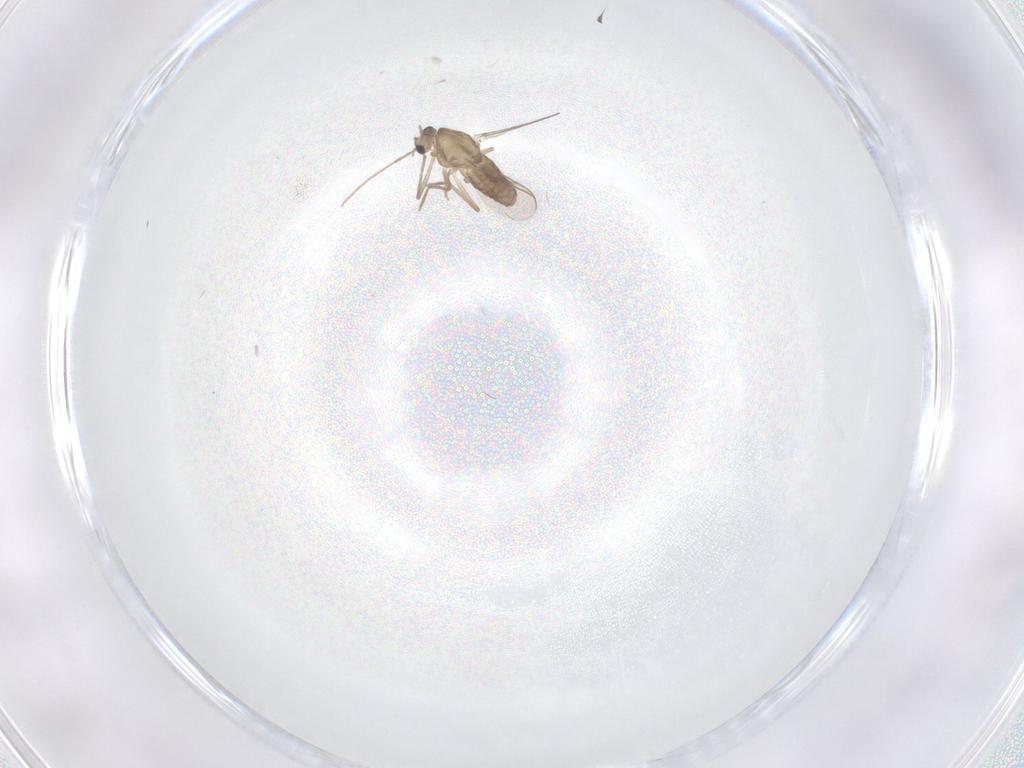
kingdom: Animalia
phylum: Arthropoda
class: Insecta
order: Diptera
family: Chironomidae
